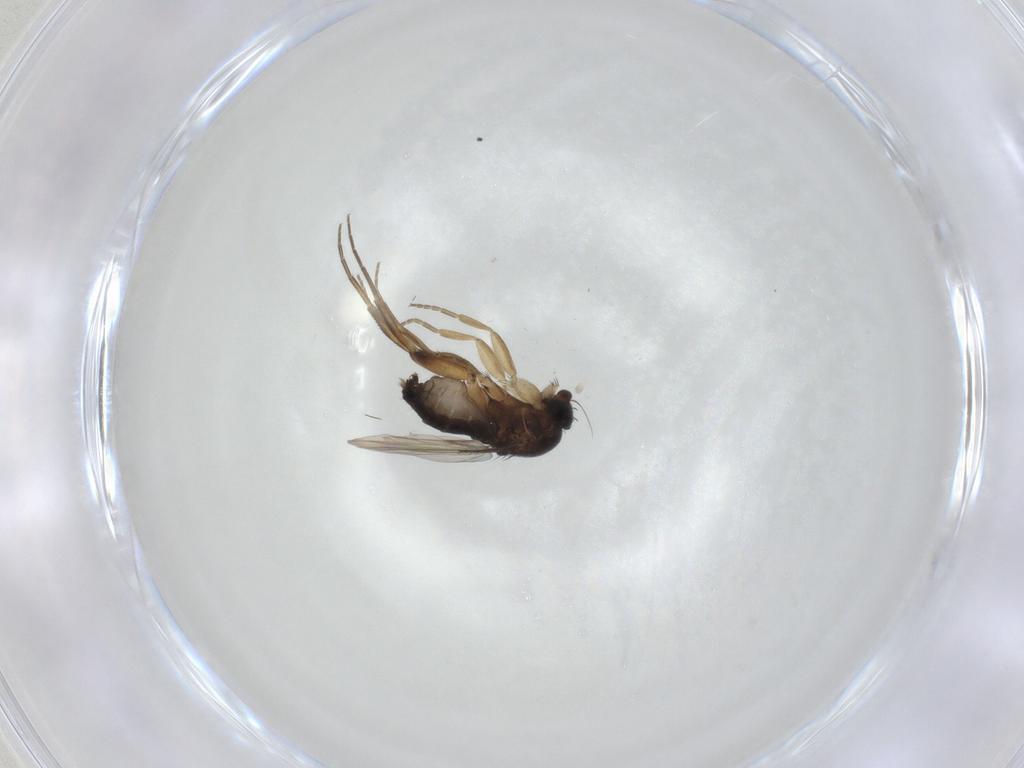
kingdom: Animalia
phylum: Arthropoda
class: Insecta
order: Diptera
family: Phoridae
